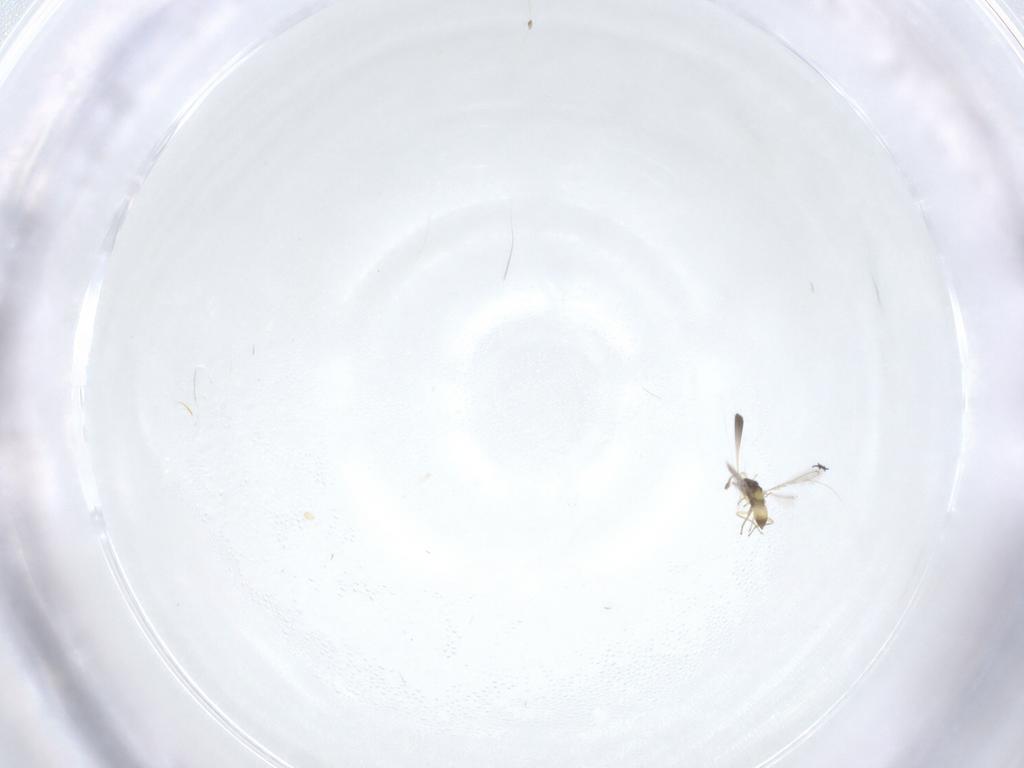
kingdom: Animalia
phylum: Arthropoda
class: Insecta
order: Hymenoptera
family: Mymaridae
